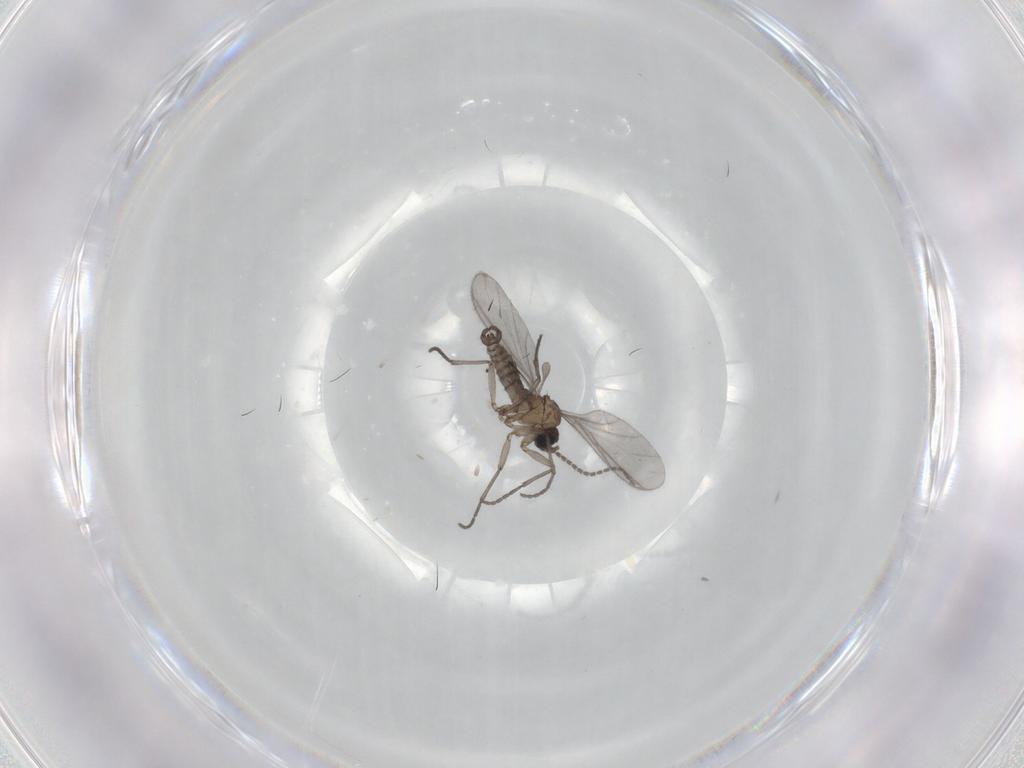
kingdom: Animalia
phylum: Arthropoda
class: Insecta
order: Diptera
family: Sciaridae
